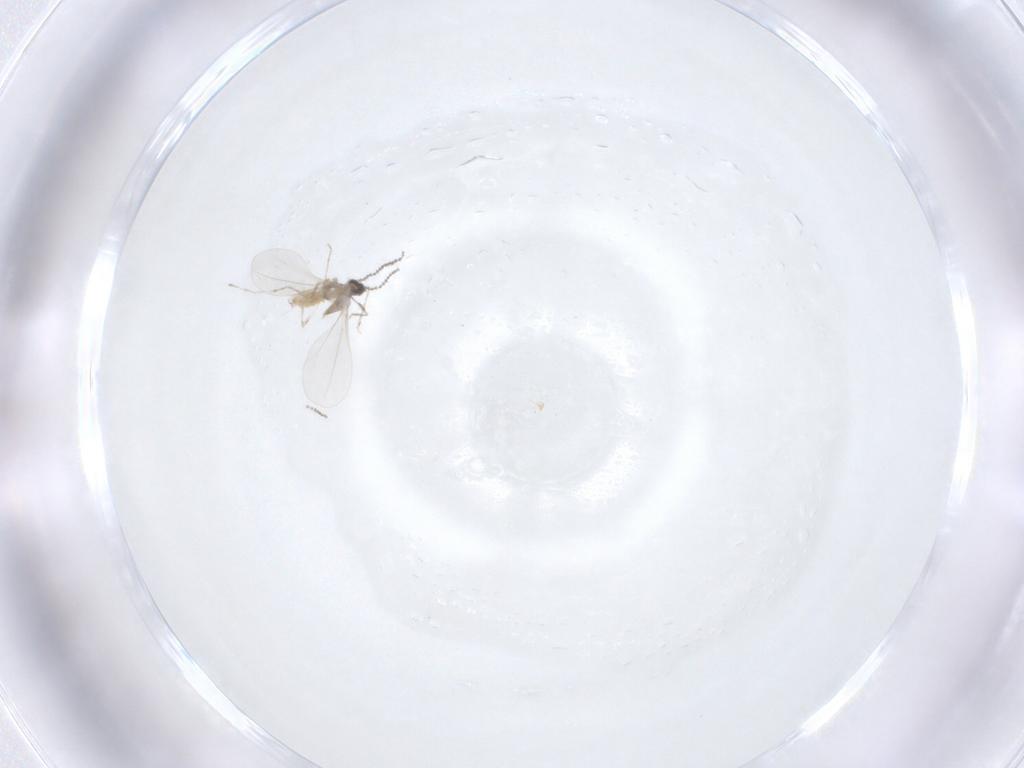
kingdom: Animalia
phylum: Arthropoda
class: Insecta
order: Diptera
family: Cecidomyiidae
